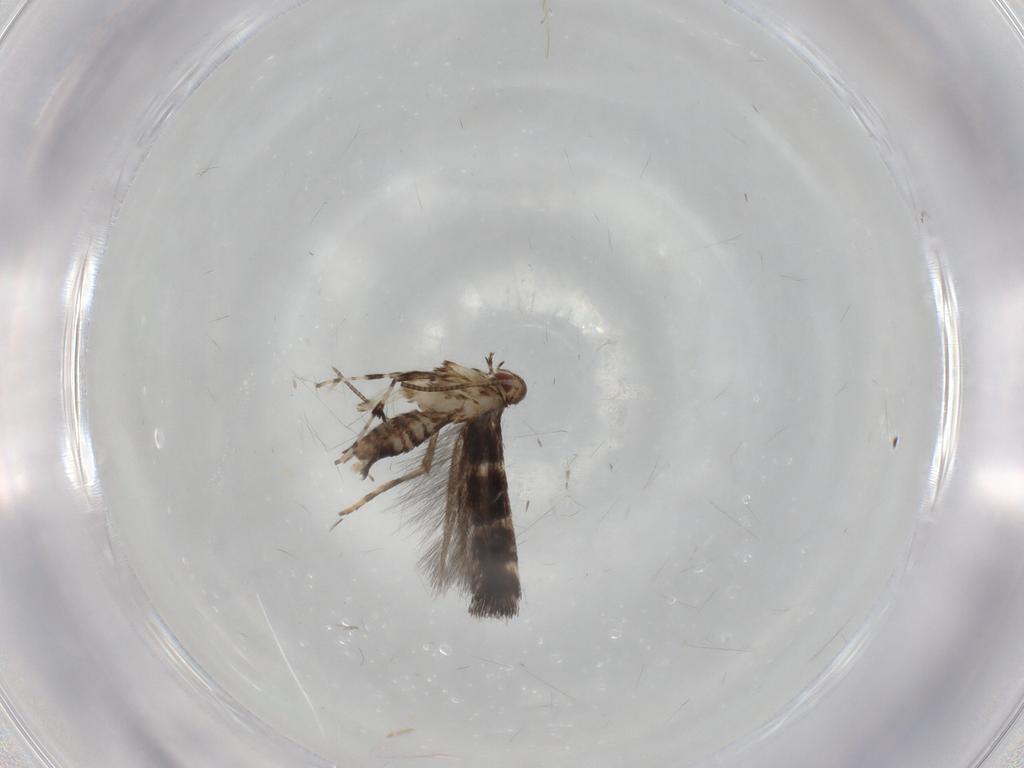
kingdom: Animalia
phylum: Arthropoda
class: Insecta
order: Lepidoptera
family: Gracillariidae
